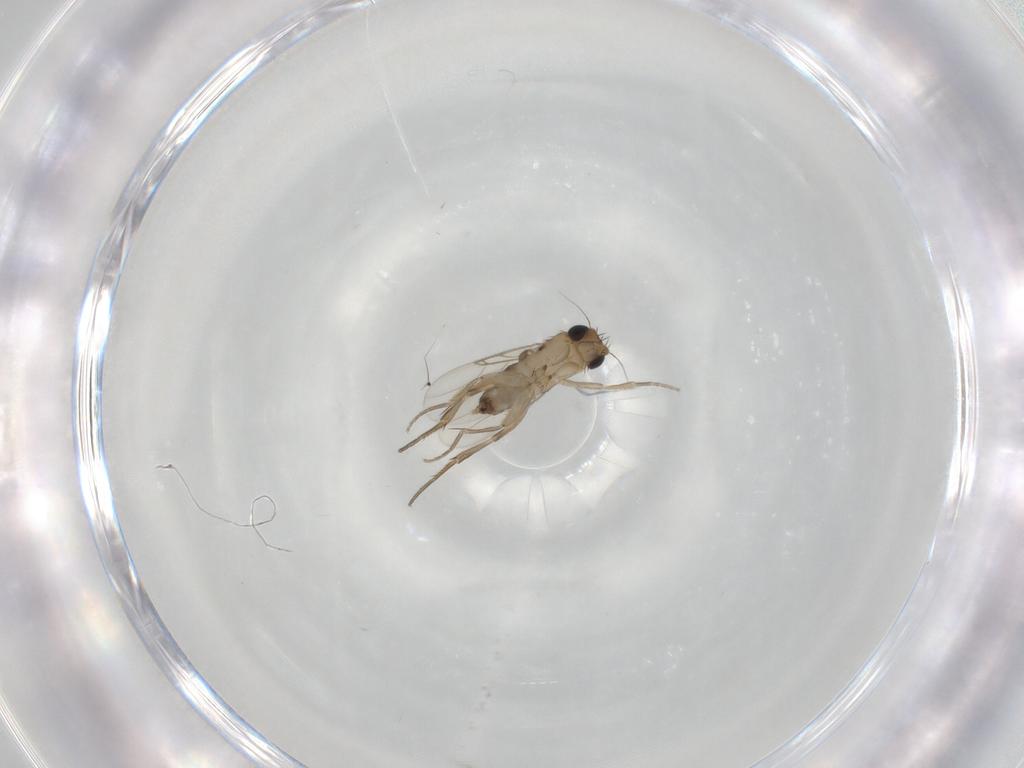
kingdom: Animalia
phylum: Arthropoda
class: Insecta
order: Diptera
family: Phoridae
